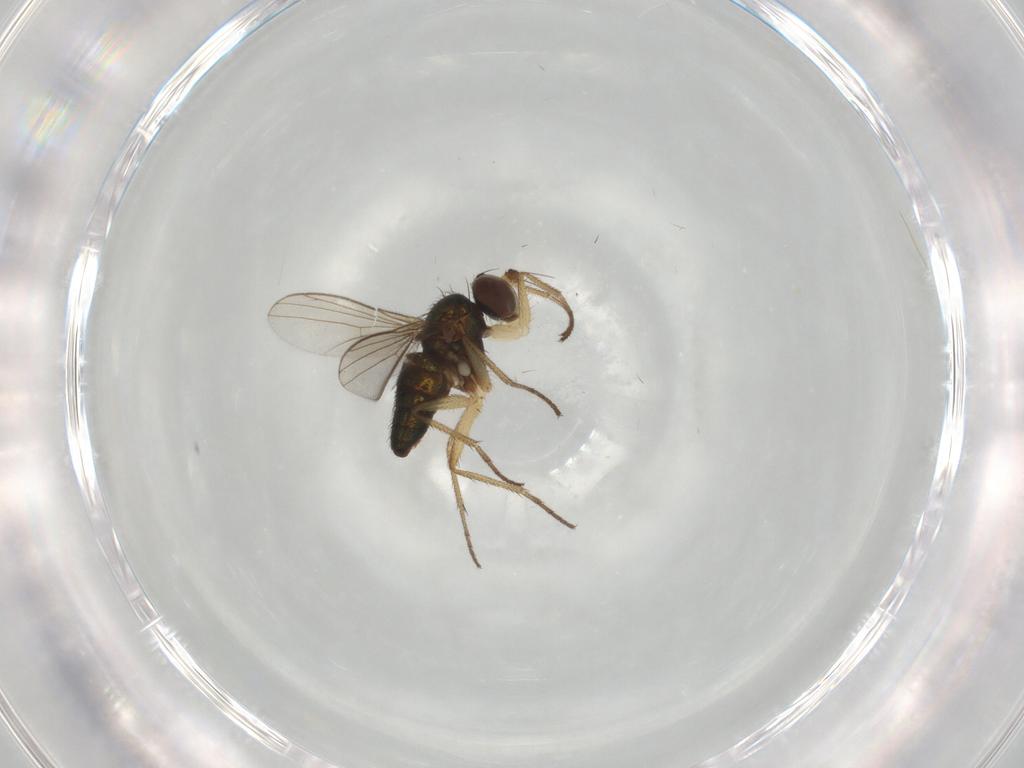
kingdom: Animalia
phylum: Arthropoda
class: Insecta
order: Diptera
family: Dolichopodidae
